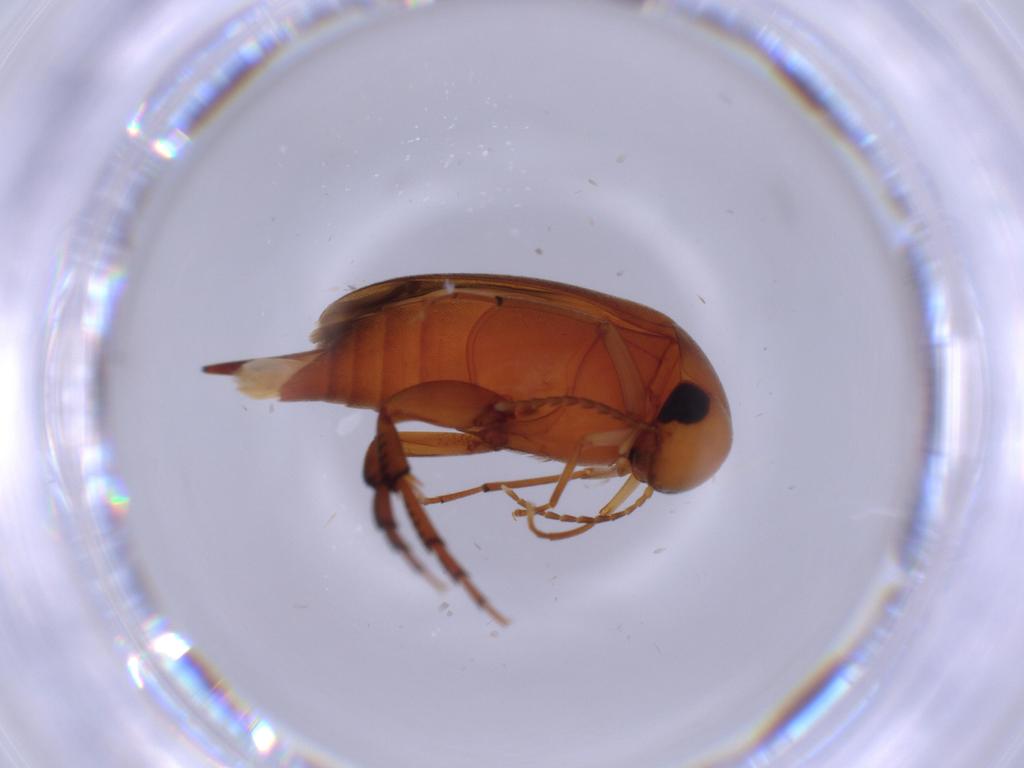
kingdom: Animalia
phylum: Arthropoda
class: Insecta
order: Coleoptera
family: Mordellidae
